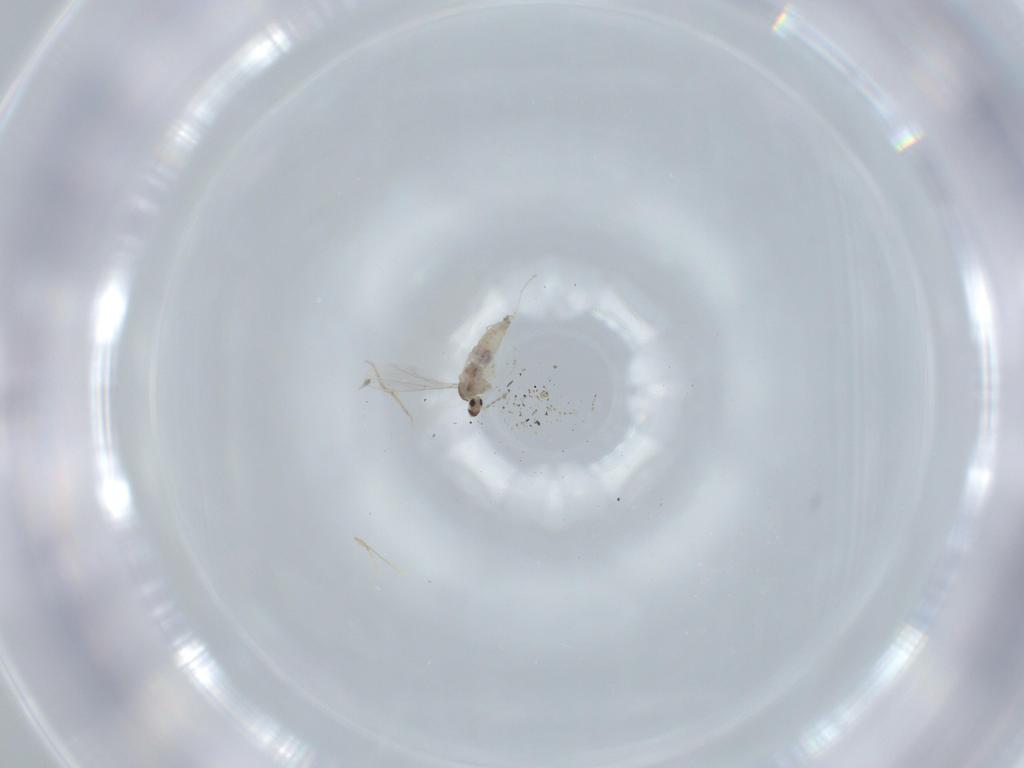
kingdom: Animalia
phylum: Arthropoda
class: Insecta
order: Diptera
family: Cecidomyiidae
